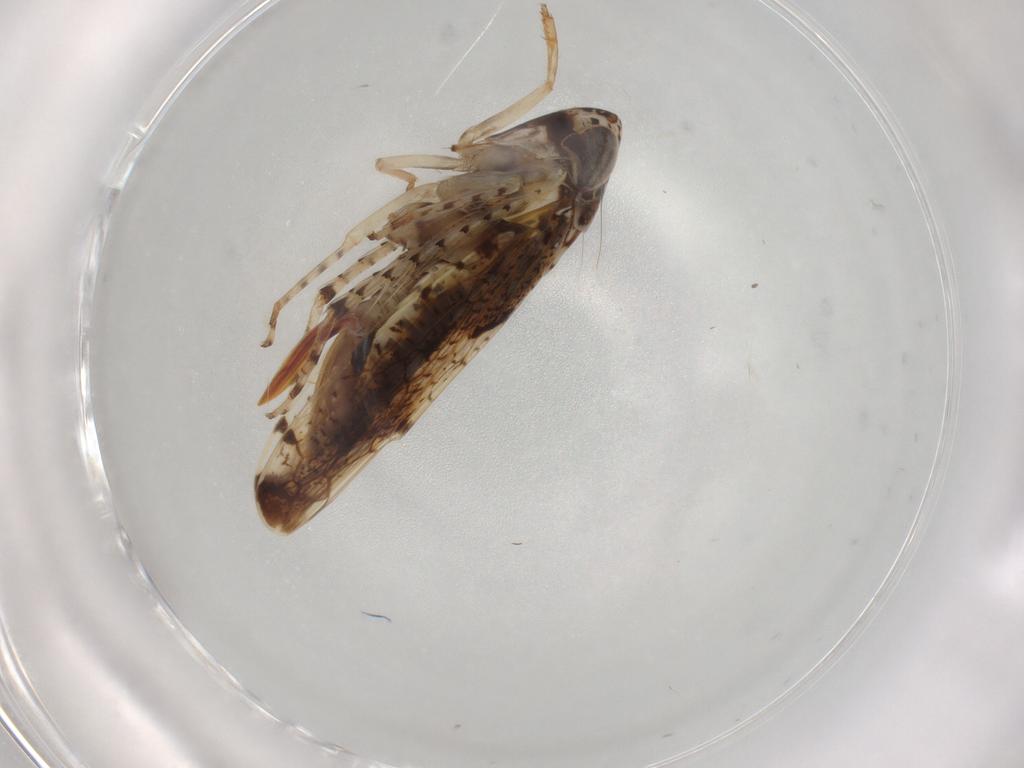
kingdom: Animalia
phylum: Arthropoda
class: Insecta
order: Hemiptera
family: Cicadellidae
